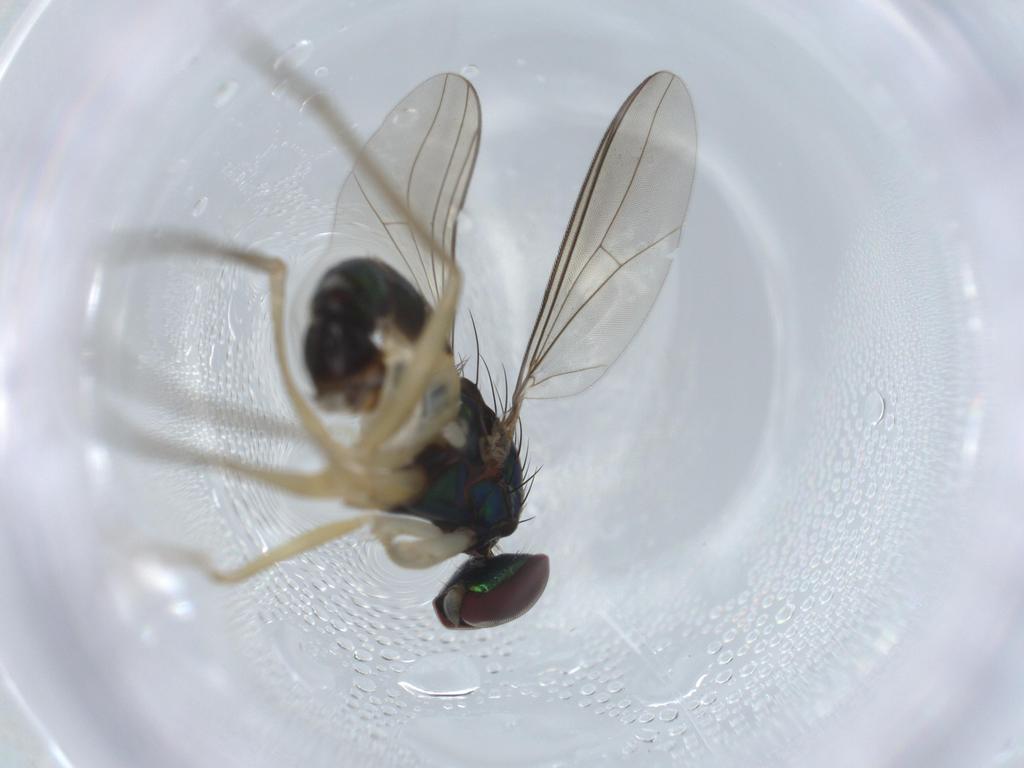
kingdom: Animalia
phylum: Arthropoda
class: Insecta
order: Diptera
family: Dolichopodidae
